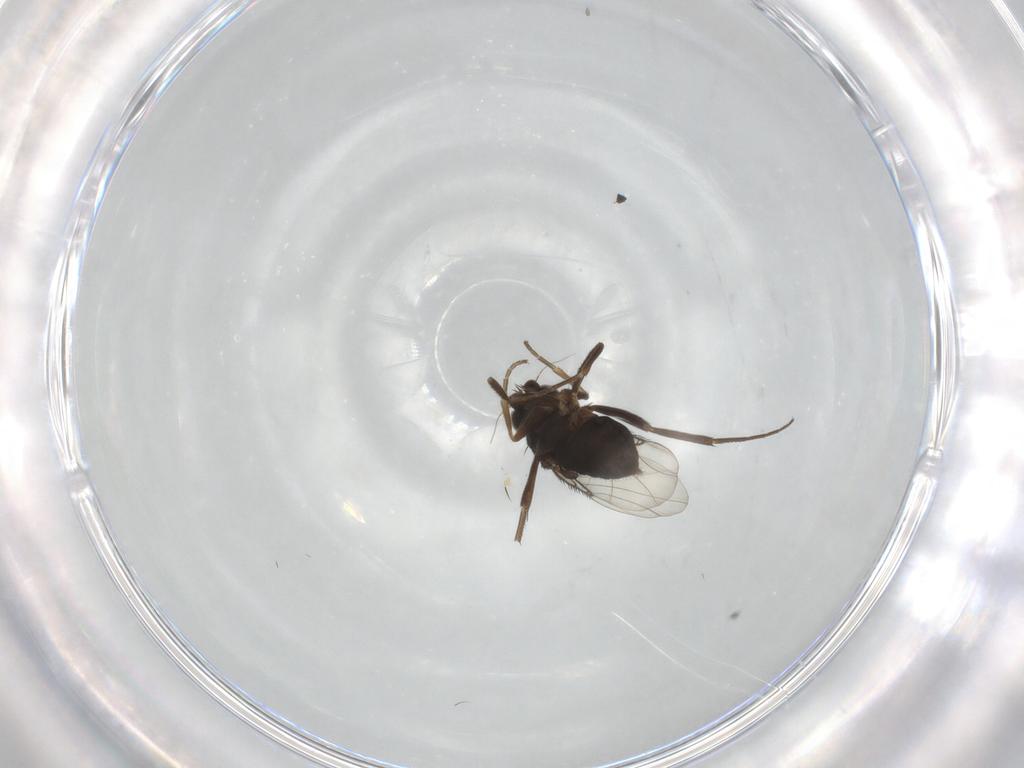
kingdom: Animalia
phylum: Arthropoda
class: Insecta
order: Diptera
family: Phoridae
